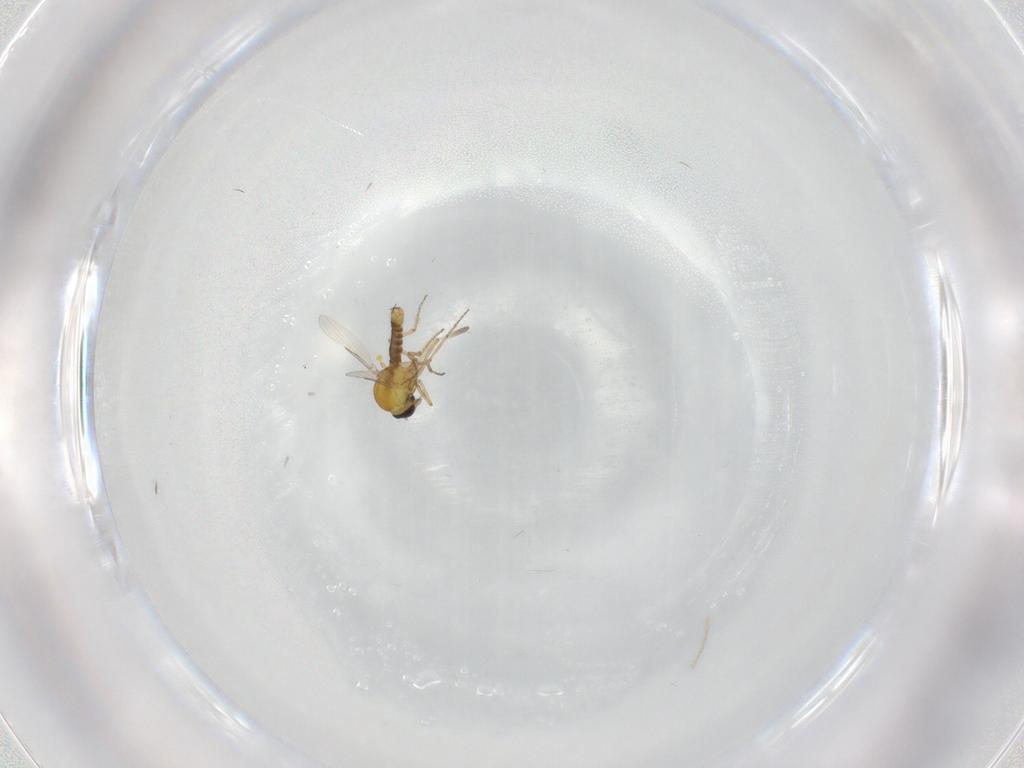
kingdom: Animalia
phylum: Arthropoda
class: Insecta
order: Diptera
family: Ceratopogonidae
